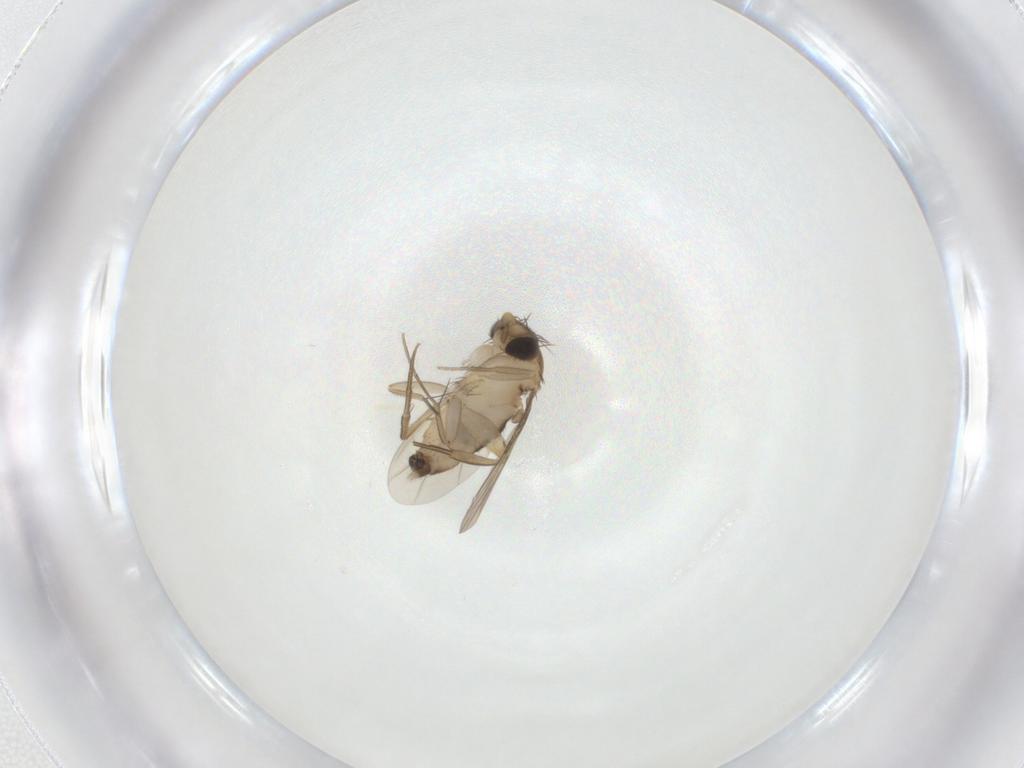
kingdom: Animalia
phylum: Arthropoda
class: Insecta
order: Diptera
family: Phoridae
